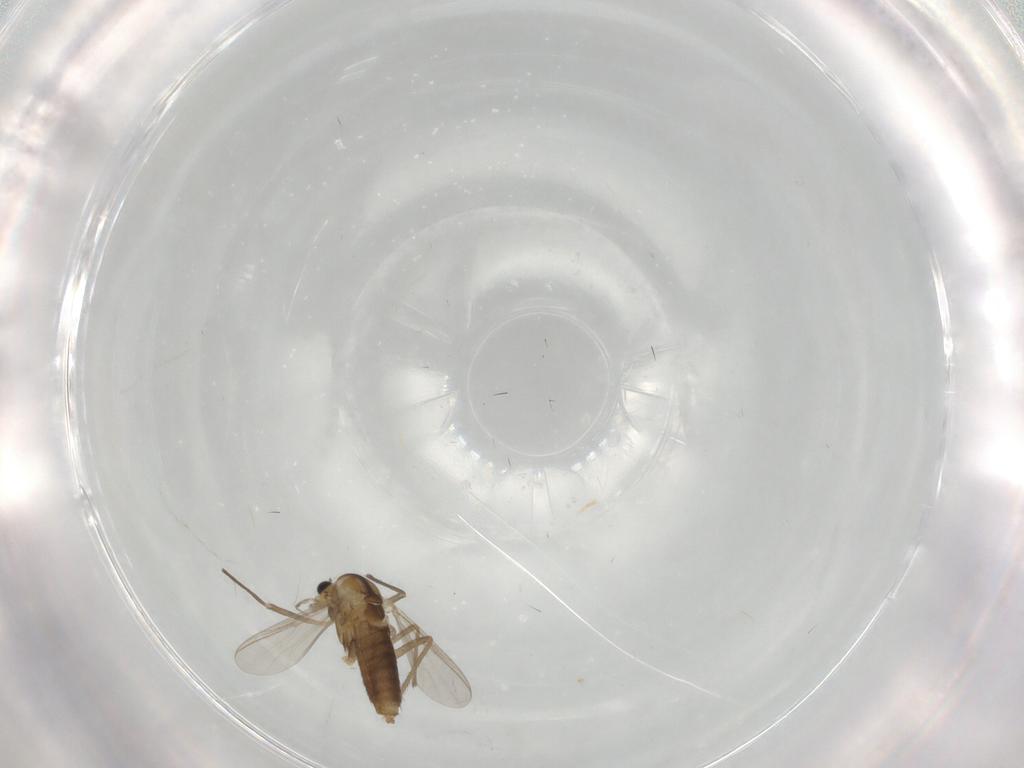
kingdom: Animalia
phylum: Arthropoda
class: Insecta
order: Diptera
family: Chironomidae
